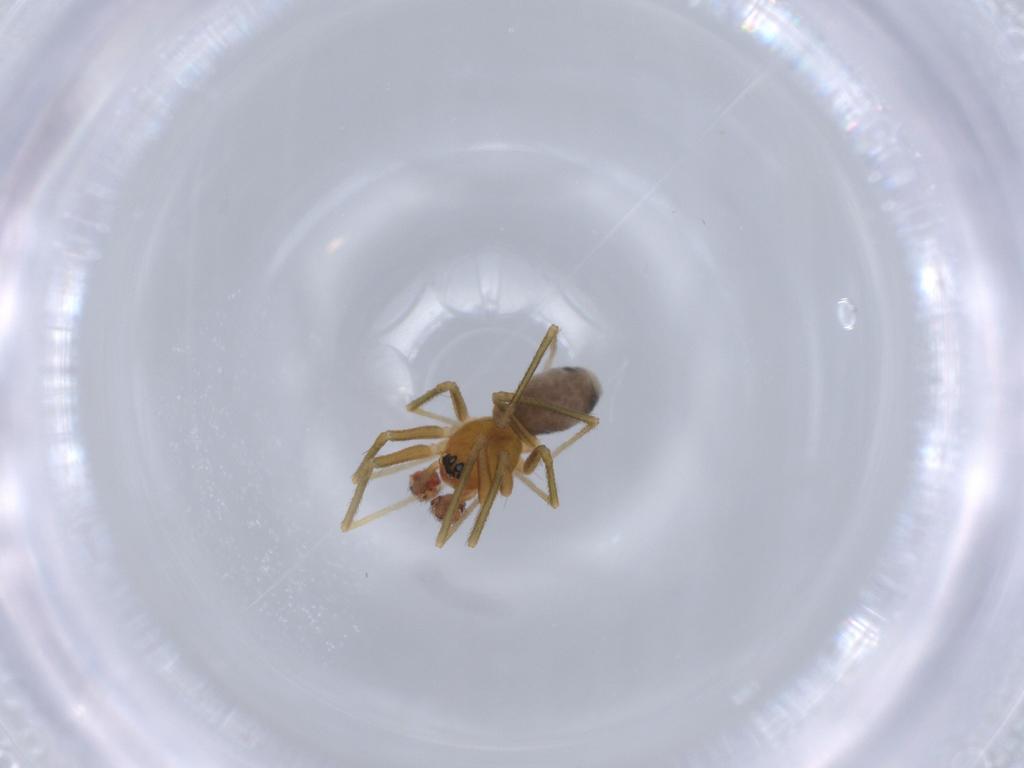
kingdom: Animalia
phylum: Arthropoda
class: Arachnida
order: Araneae
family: Linyphiidae
